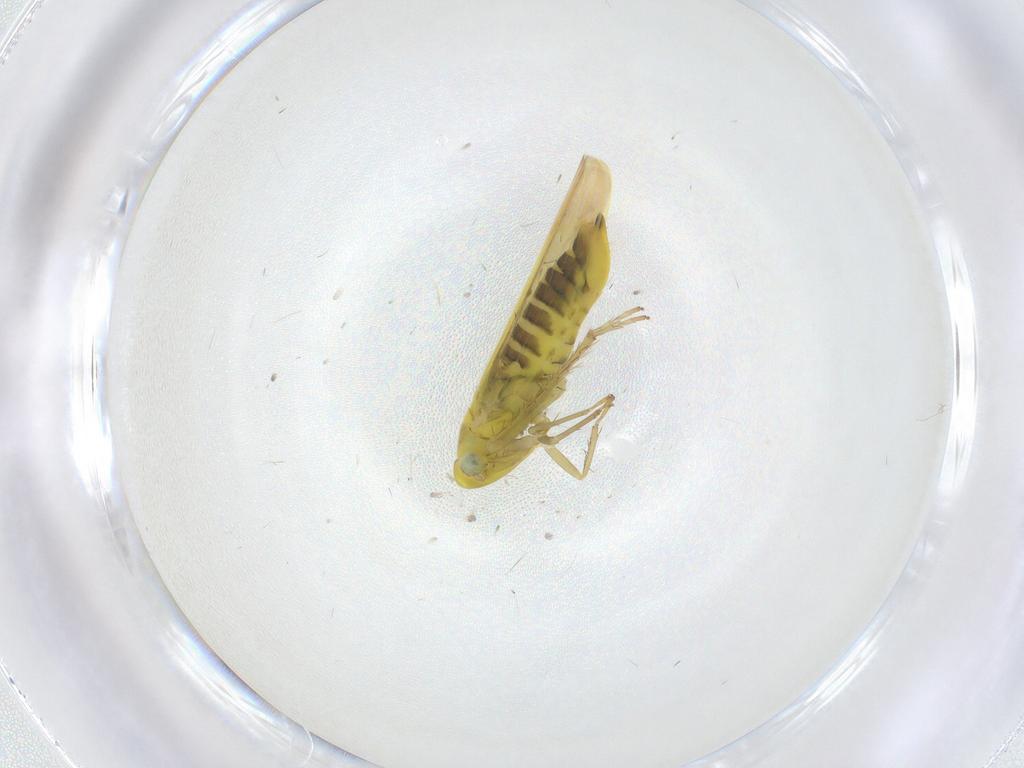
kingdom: Animalia
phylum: Arthropoda
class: Insecta
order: Hemiptera
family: Cicadellidae
